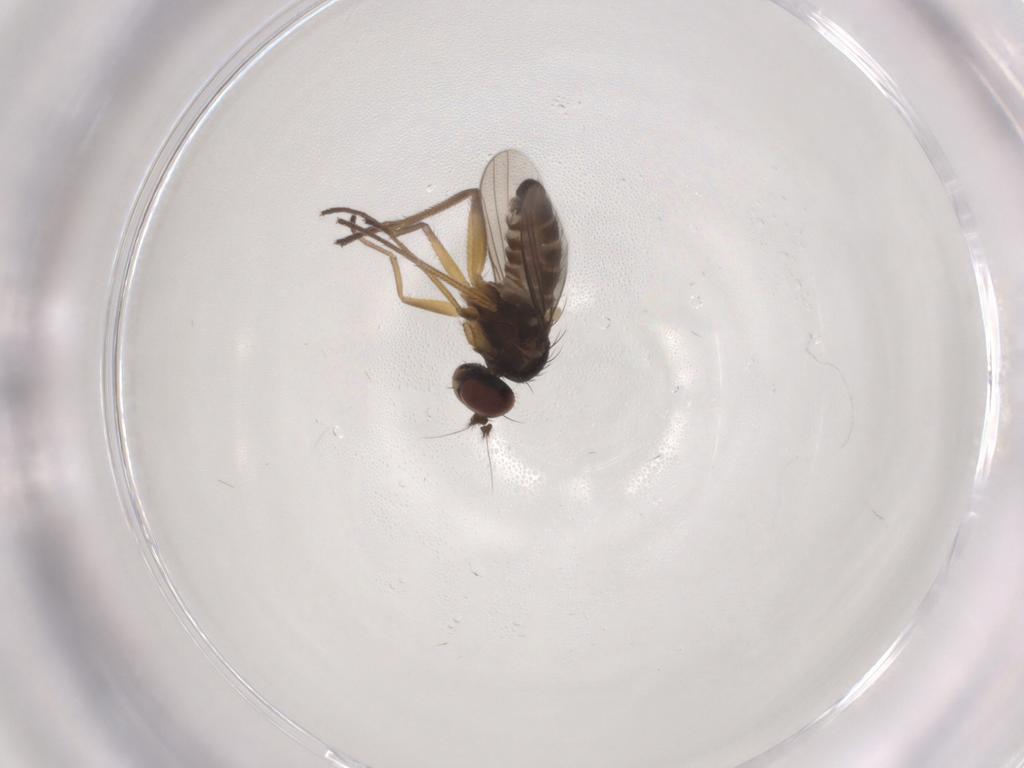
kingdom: Animalia
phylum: Arthropoda
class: Insecta
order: Diptera
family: Dolichopodidae
